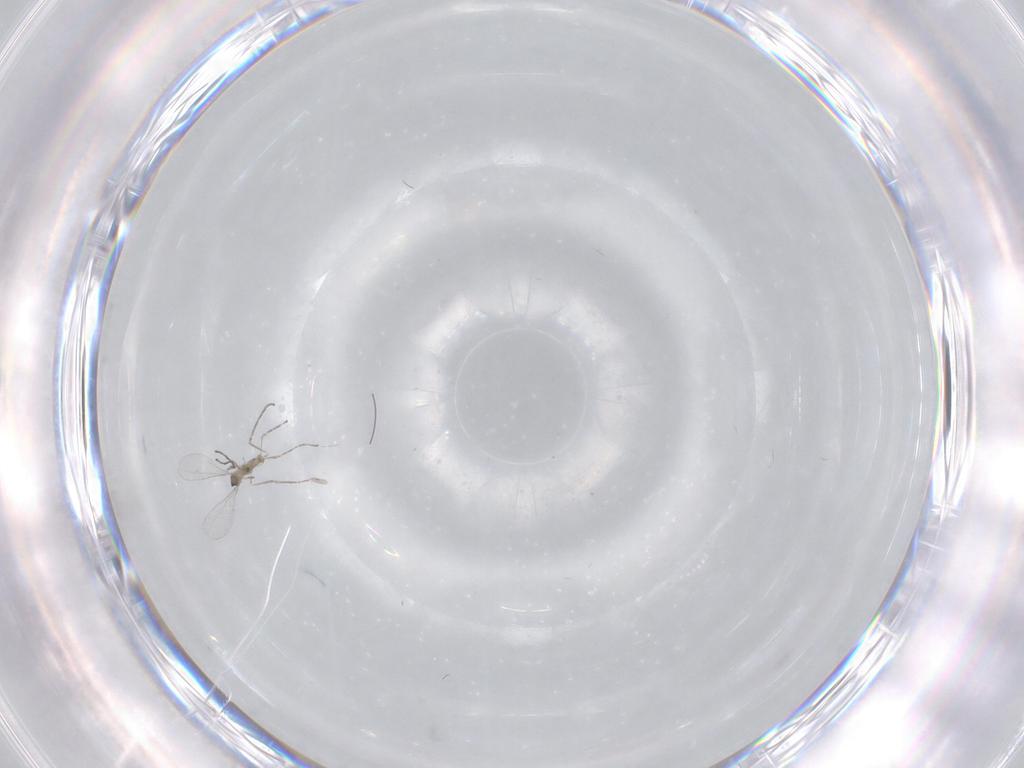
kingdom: Animalia
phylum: Arthropoda
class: Insecta
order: Diptera
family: Cecidomyiidae
